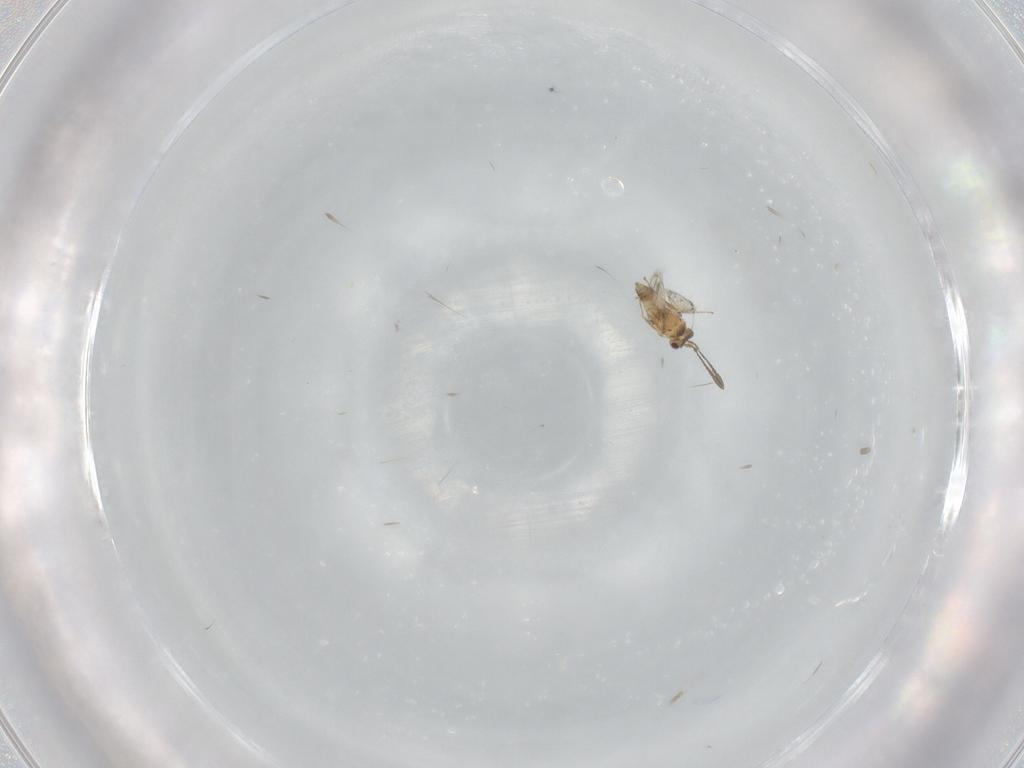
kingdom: Animalia
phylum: Arthropoda
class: Insecta
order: Hymenoptera
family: Mymaridae
